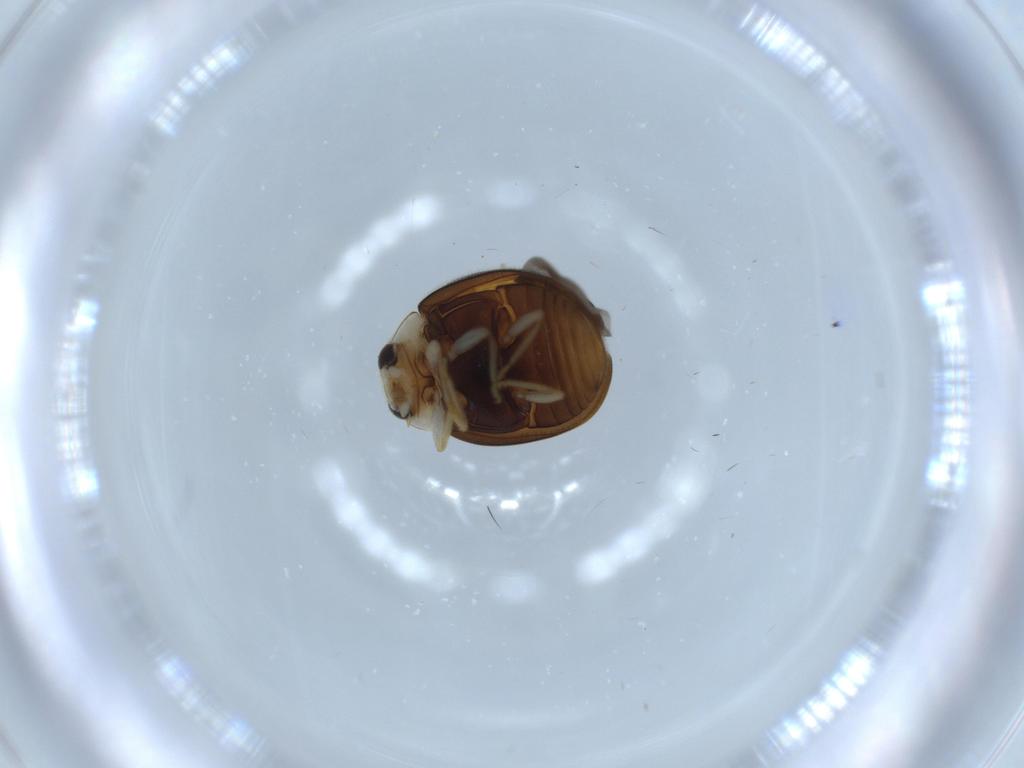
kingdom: Animalia
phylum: Arthropoda
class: Insecta
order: Coleoptera
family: Coccinellidae
